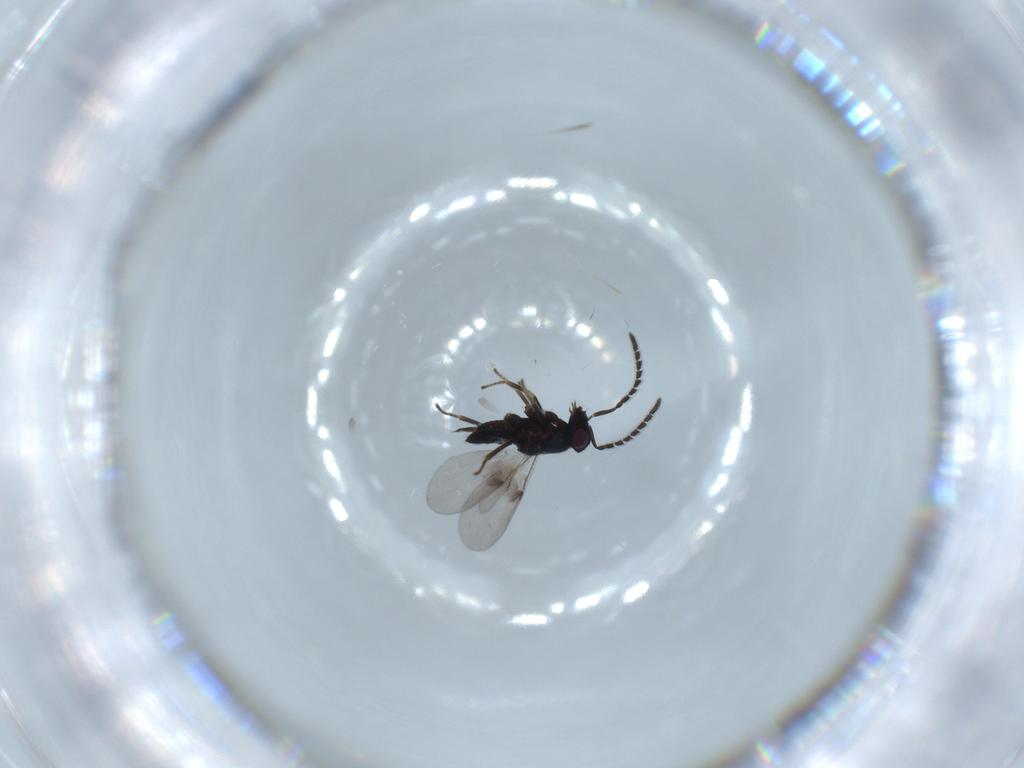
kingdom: Animalia
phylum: Arthropoda
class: Insecta
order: Hymenoptera
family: Encyrtidae
